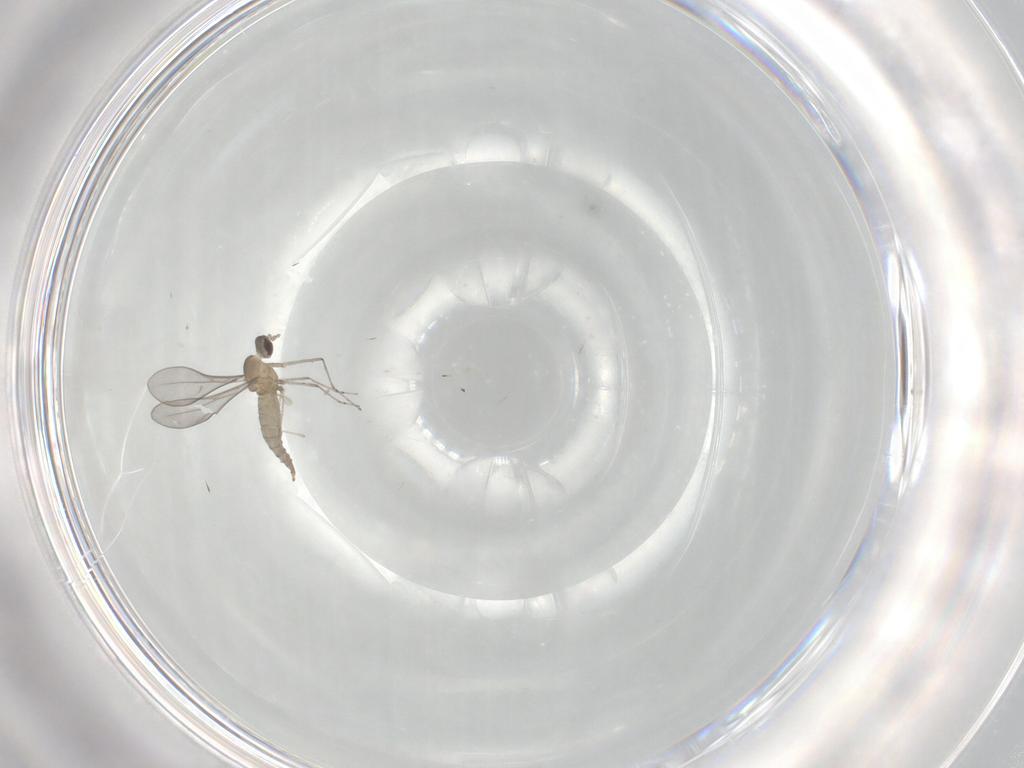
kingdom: Animalia
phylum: Arthropoda
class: Insecta
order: Diptera
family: Cecidomyiidae
